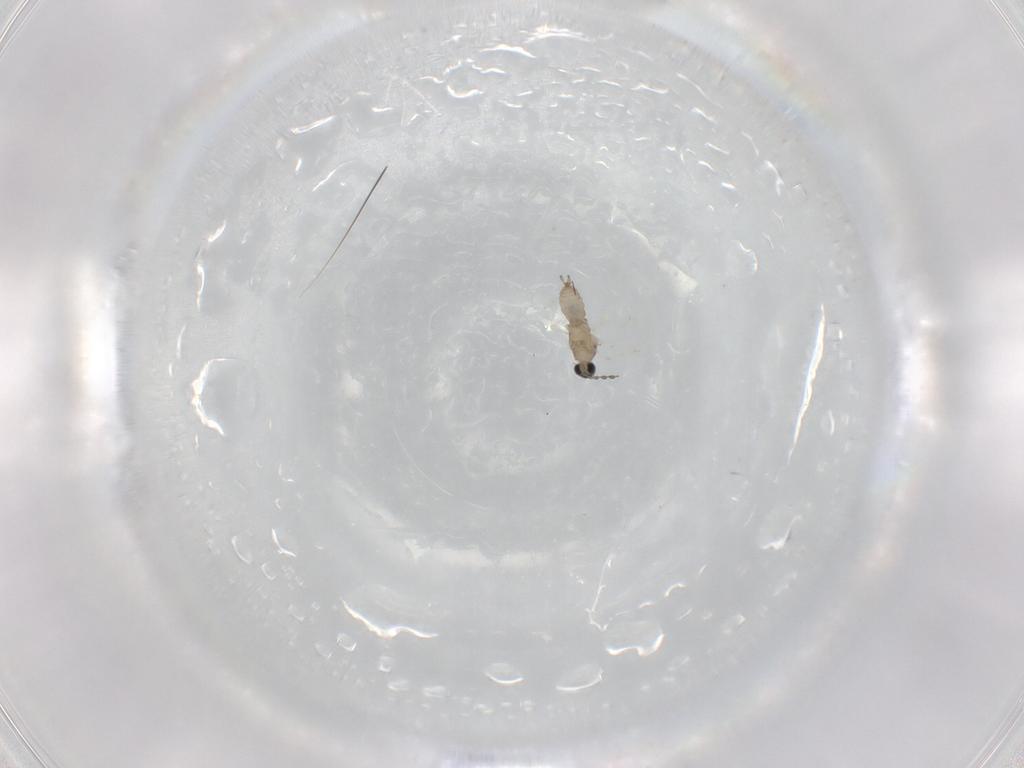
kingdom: Animalia
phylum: Arthropoda
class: Insecta
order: Diptera
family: Cecidomyiidae
